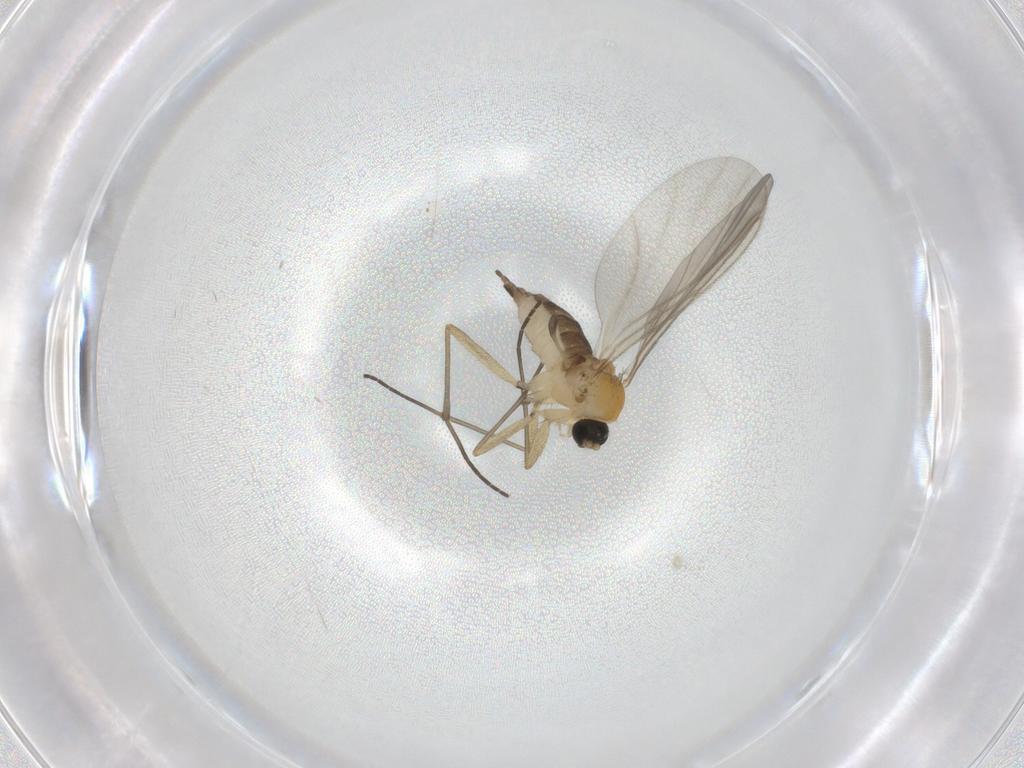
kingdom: Animalia
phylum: Arthropoda
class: Insecta
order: Diptera
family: Sciaridae
